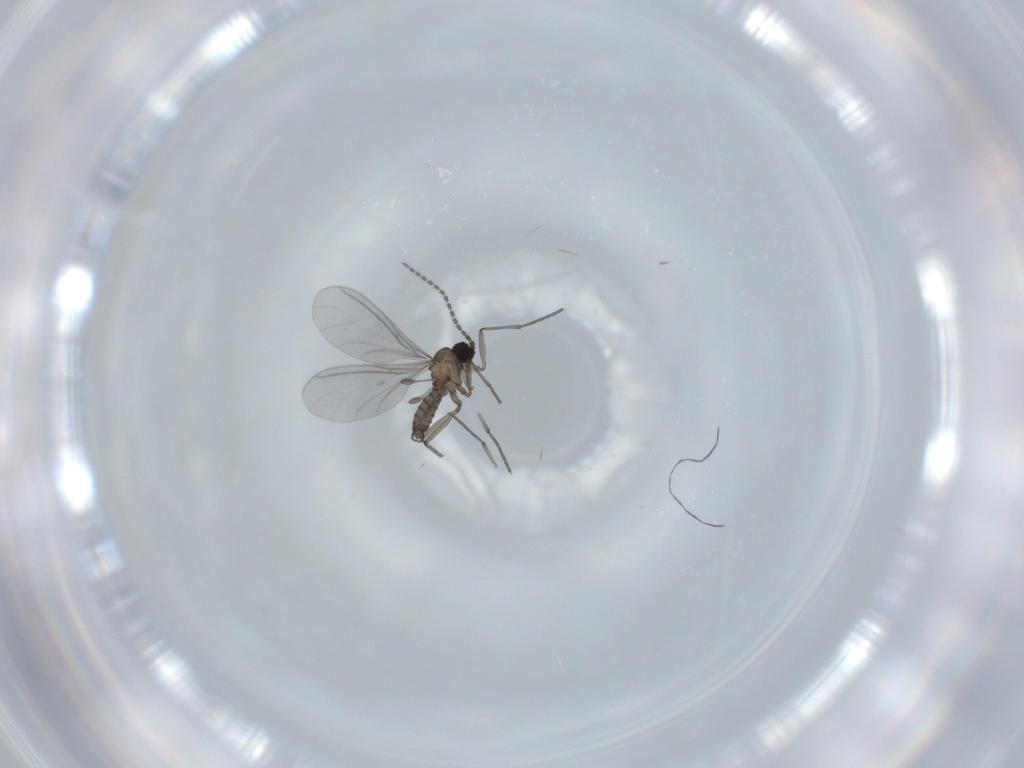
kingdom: Animalia
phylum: Arthropoda
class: Insecta
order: Diptera
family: Sciaridae
